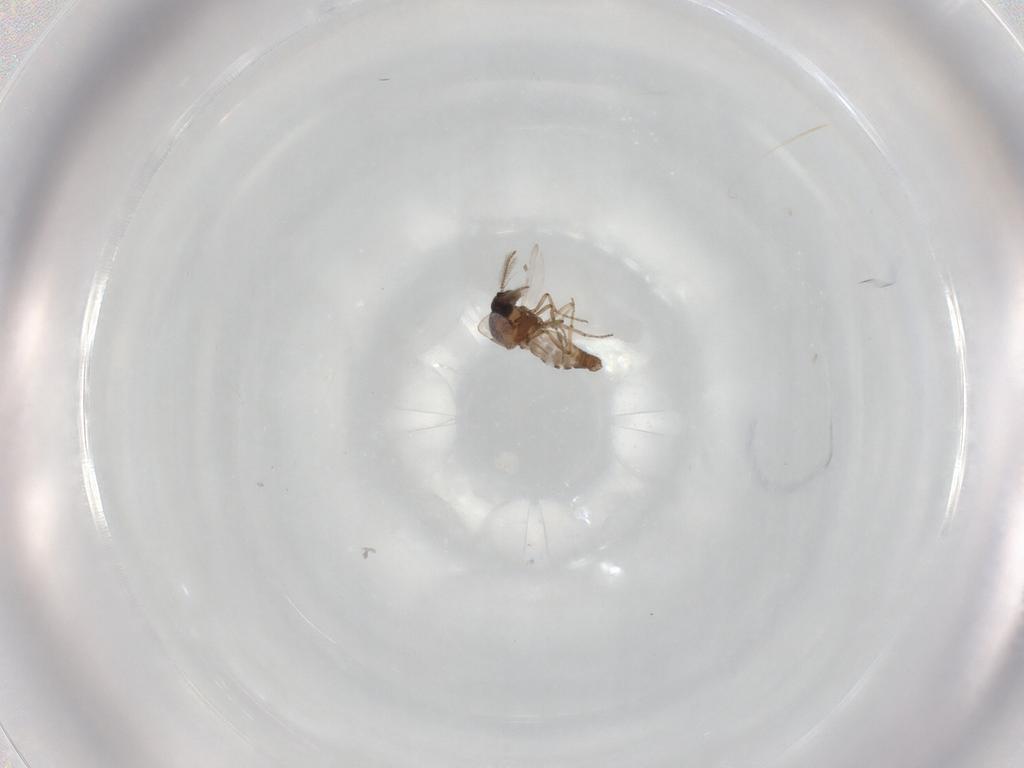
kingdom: Animalia
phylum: Arthropoda
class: Insecta
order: Diptera
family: Ceratopogonidae
